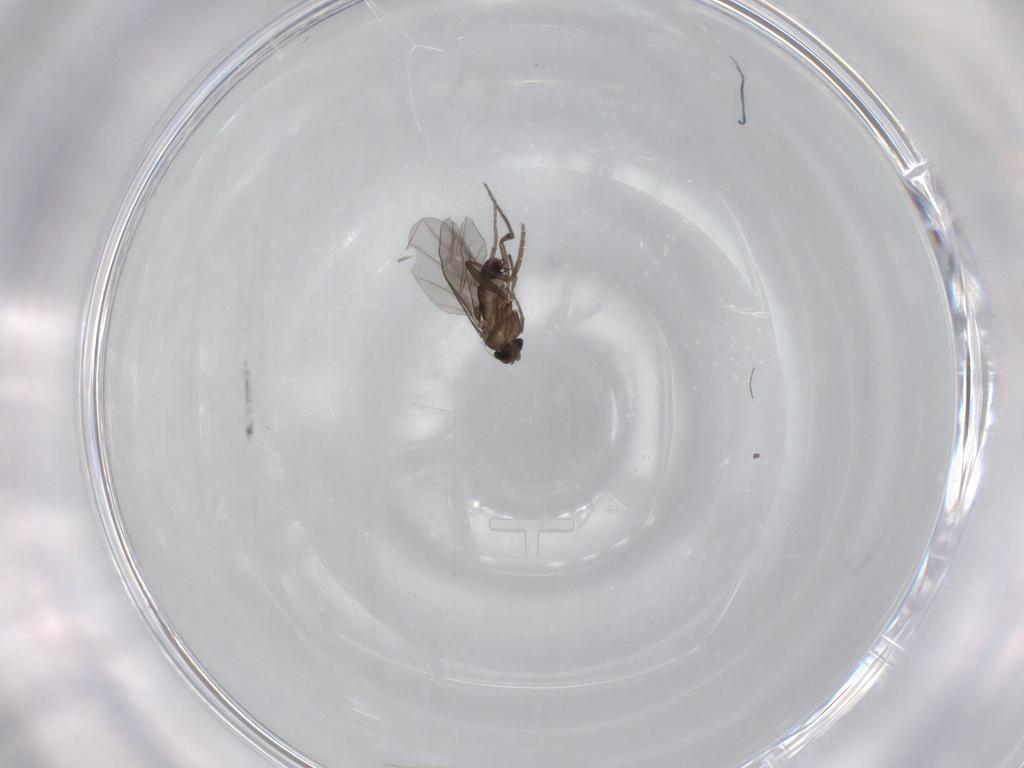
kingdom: Animalia
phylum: Arthropoda
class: Insecta
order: Diptera
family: Phoridae
